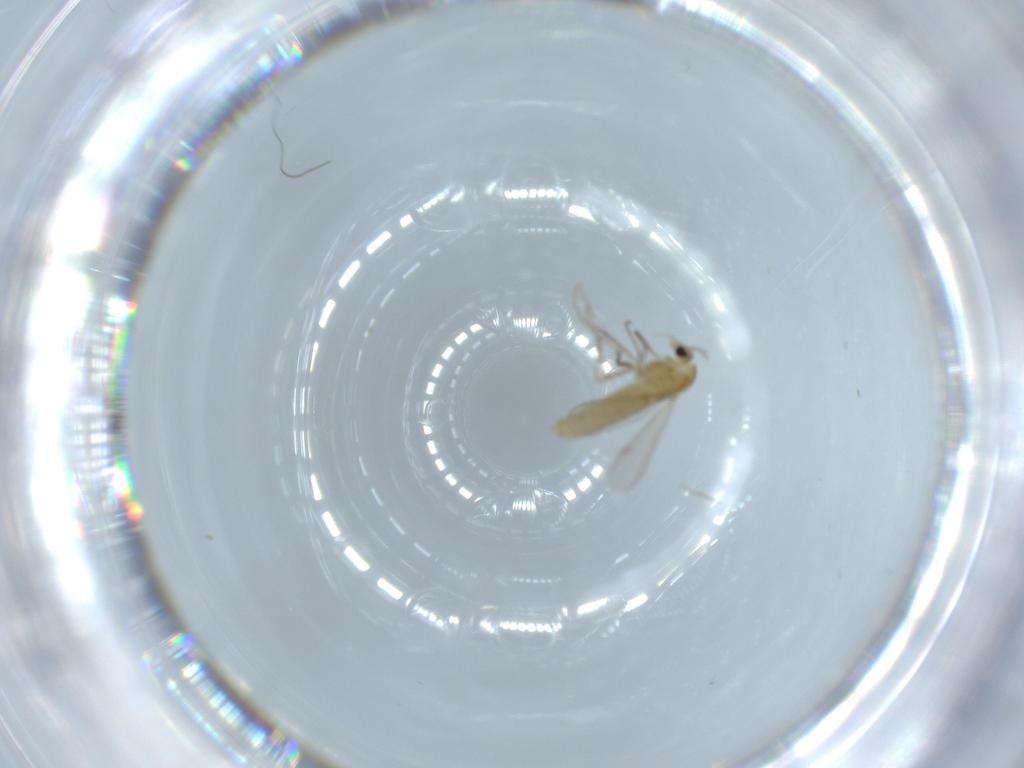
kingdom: Animalia
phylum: Arthropoda
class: Insecta
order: Diptera
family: Chironomidae
